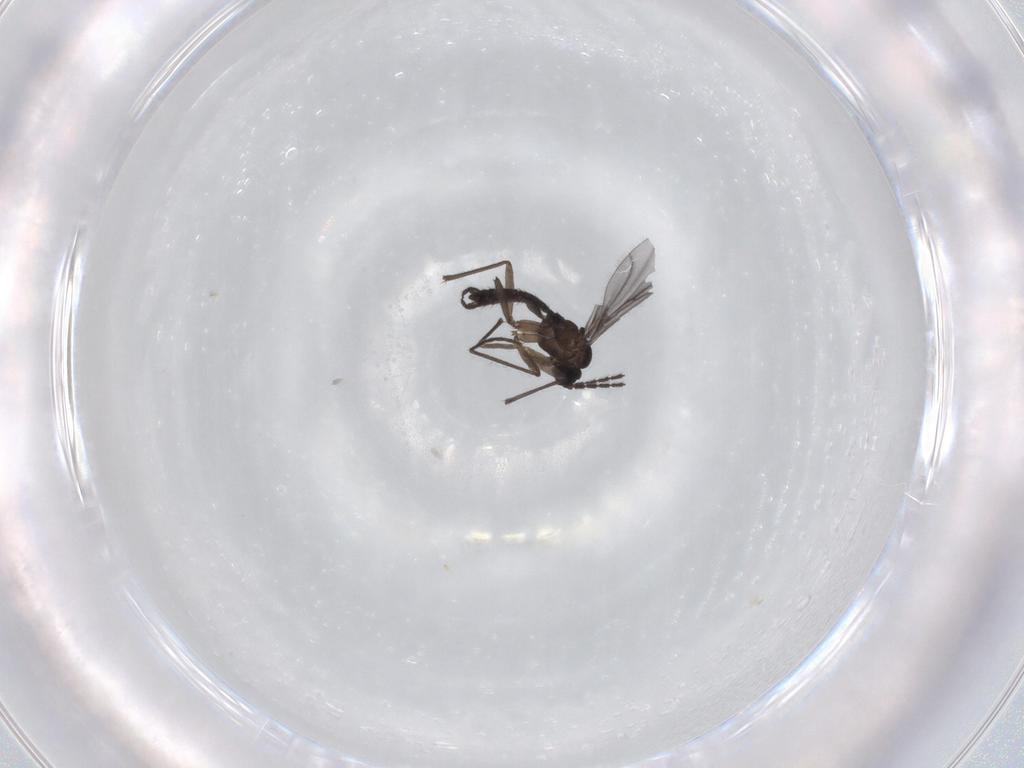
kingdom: Animalia
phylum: Arthropoda
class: Insecta
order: Diptera
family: Sciaridae
